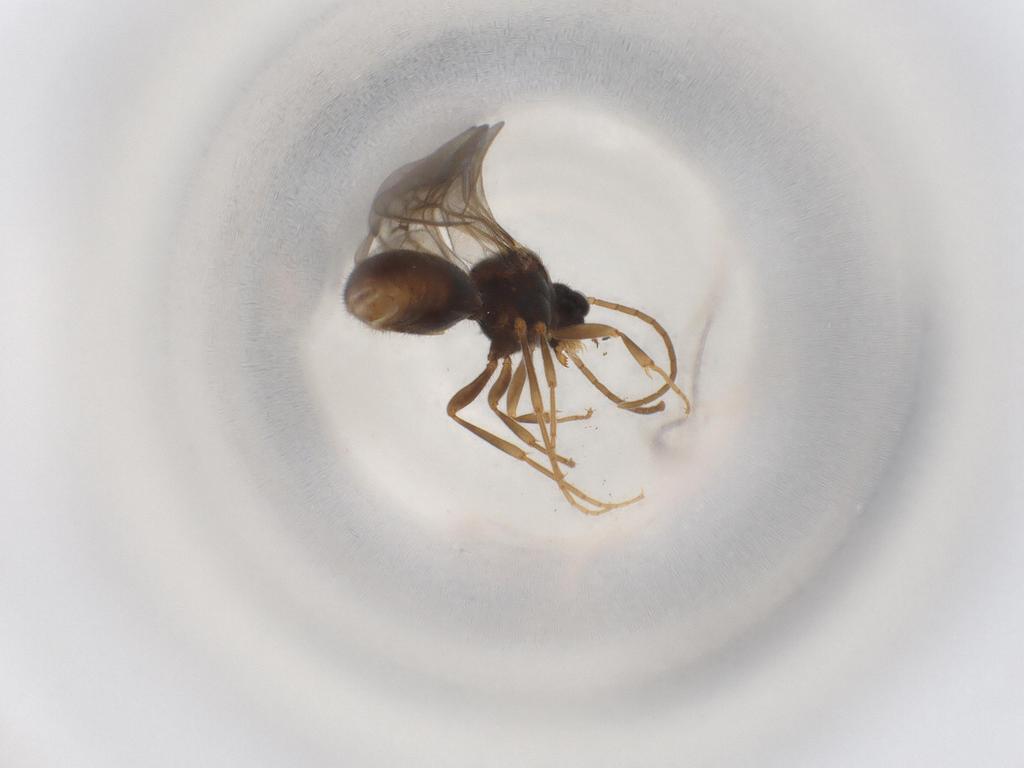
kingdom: Animalia
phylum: Arthropoda
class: Insecta
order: Hymenoptera
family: Formicidae
